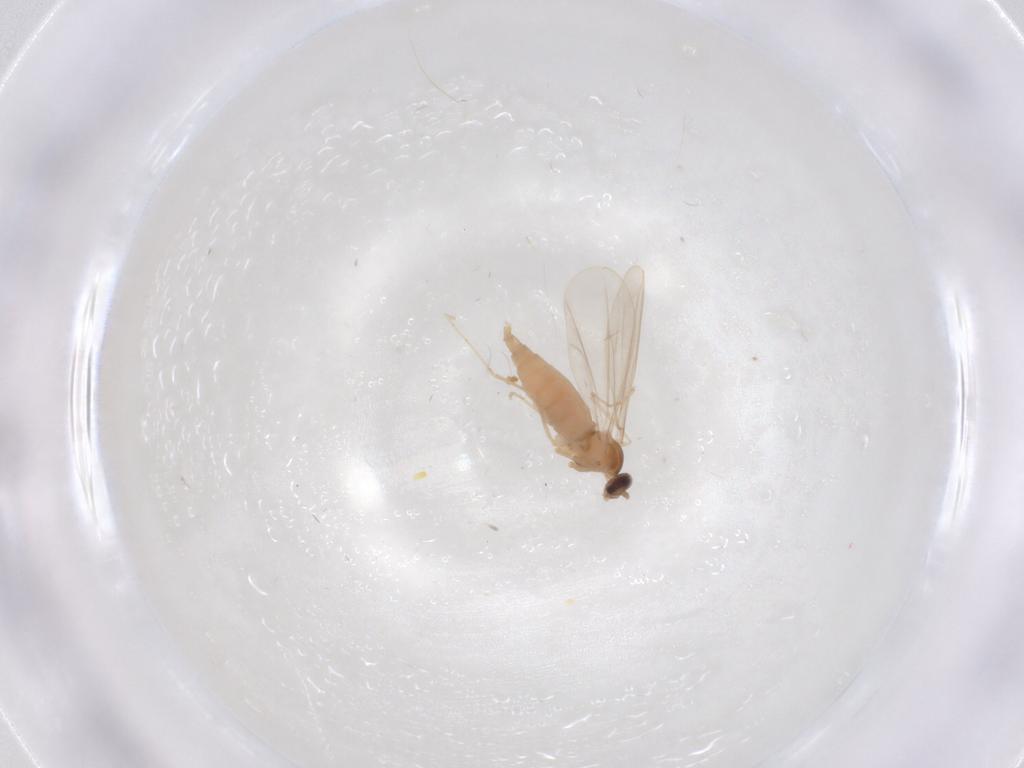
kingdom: Animalia
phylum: Arthropoda
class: Insecta
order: Diptera
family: Cecidomyiidae
